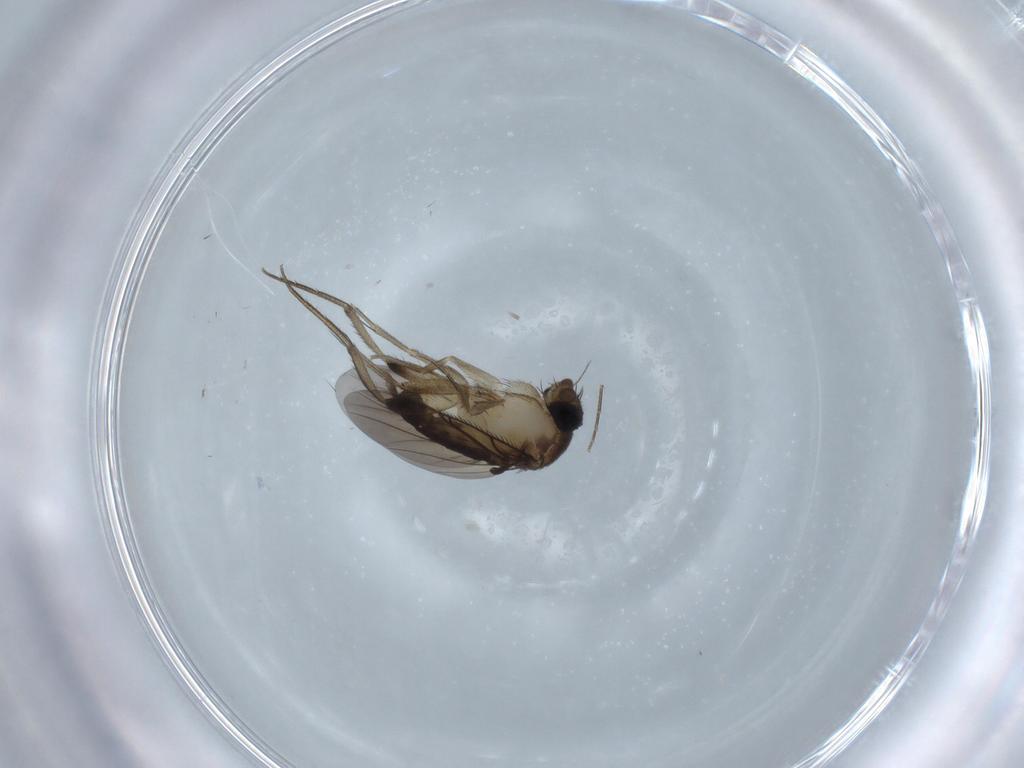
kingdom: Animalia
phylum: Arthropoda
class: Insecta
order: Diptera
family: Phoridae
